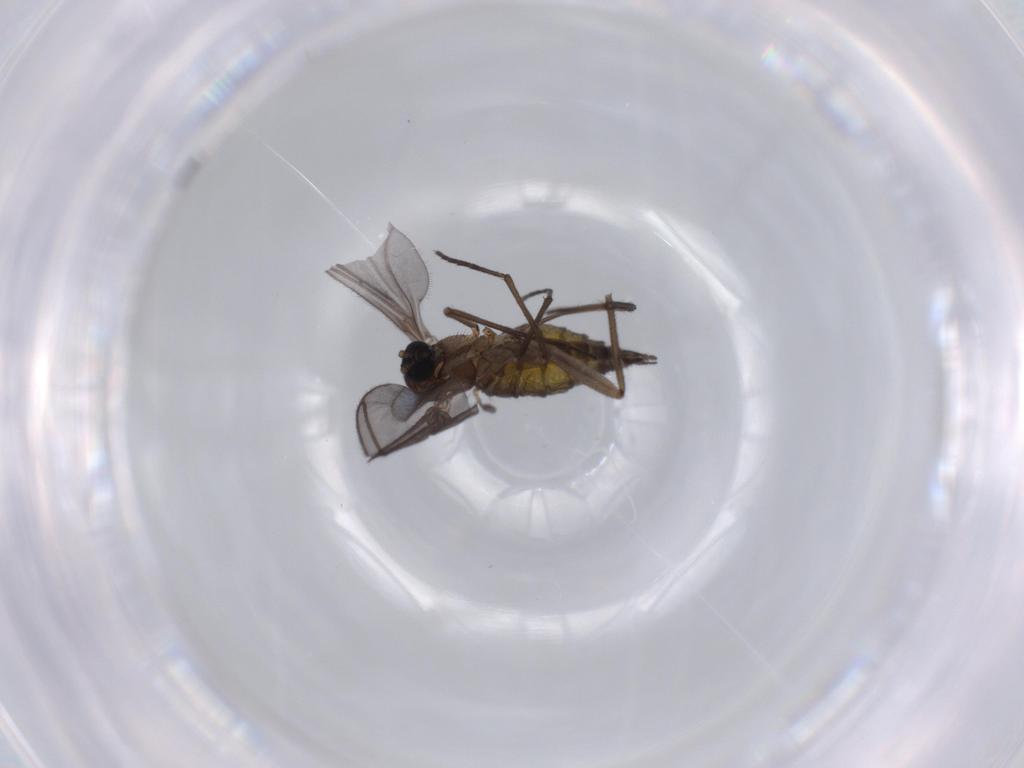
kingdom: Animalia
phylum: Arthropoda
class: Insecta
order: Diptera
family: Sciaridae
